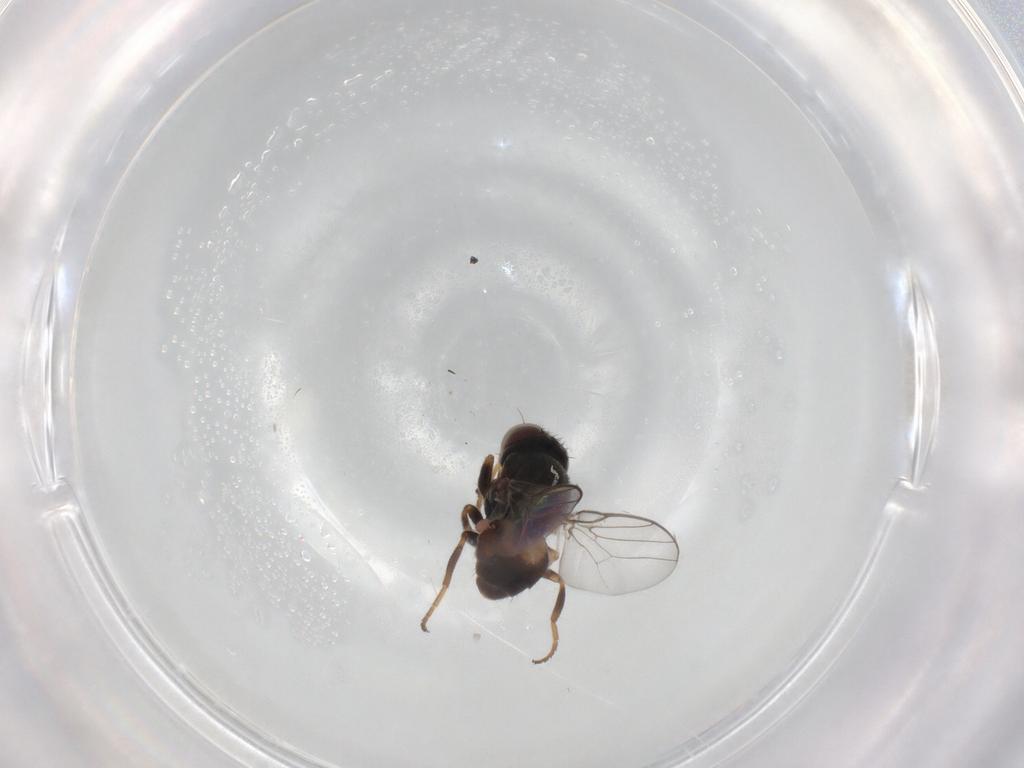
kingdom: Animalia
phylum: Arthropoda
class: Insecta
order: Diptera
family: Chloropidae
